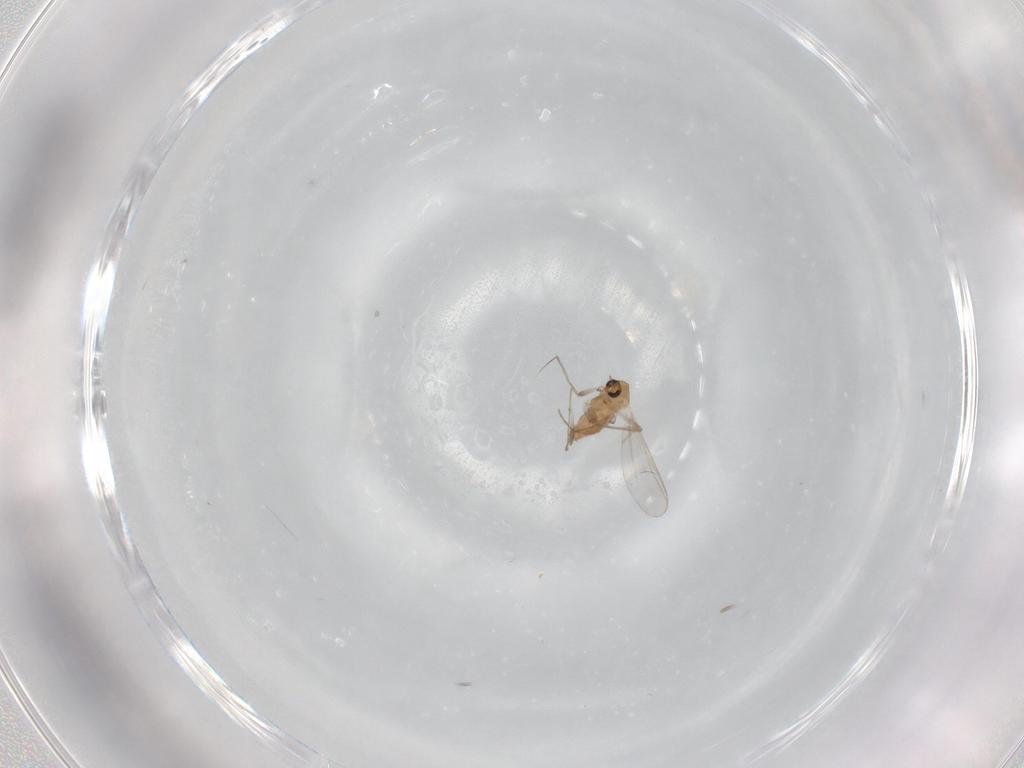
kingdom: Animalia
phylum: Arthropoda
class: Insecta
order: Diptera
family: Chironomidae
